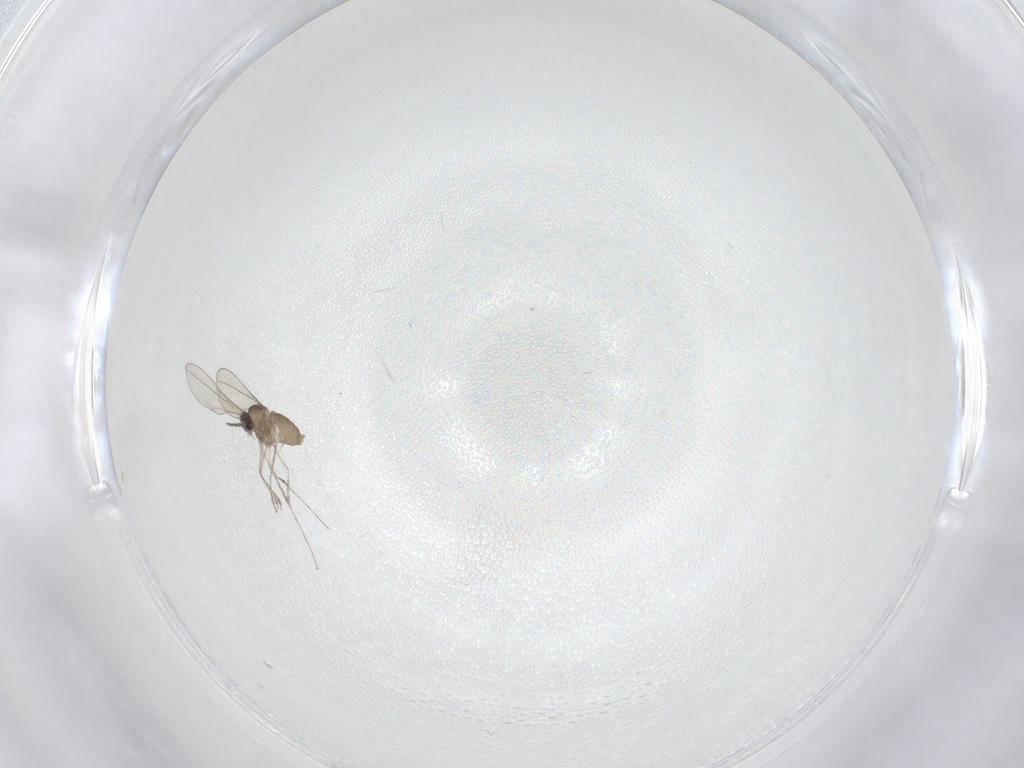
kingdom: Animalia
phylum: Arthropoda
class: Insecta
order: Diptera
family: Cecidomyiidae
